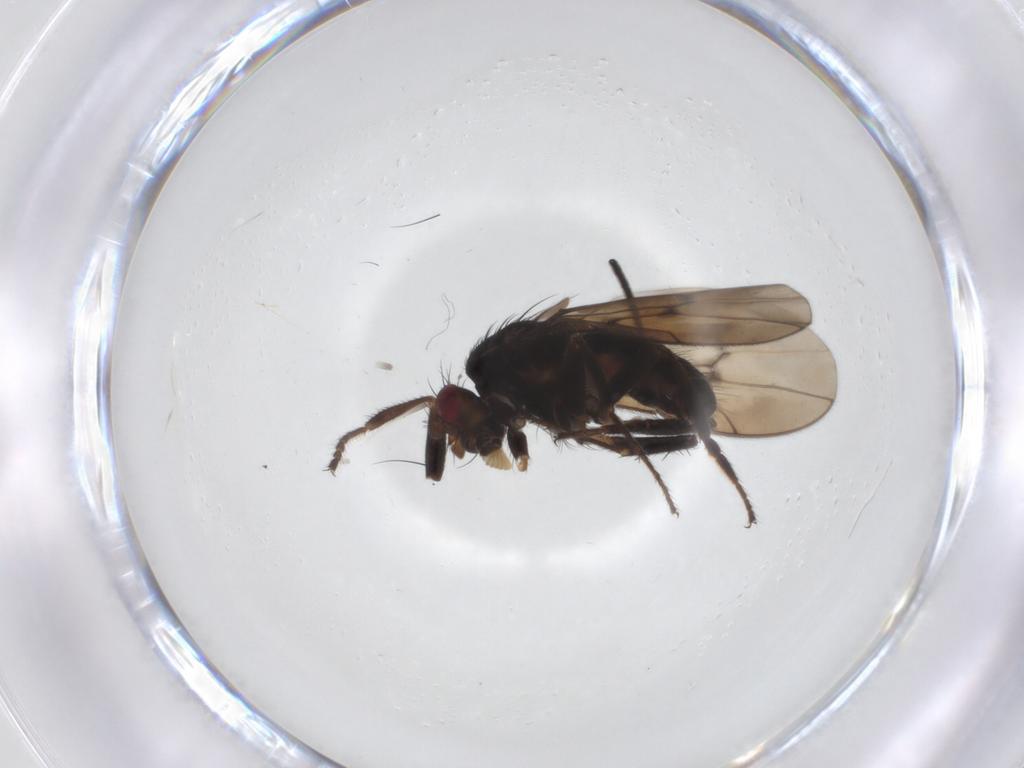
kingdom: Animalia
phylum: Arthropoda
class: Insecta
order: Diptera
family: Sphaeroceridae
